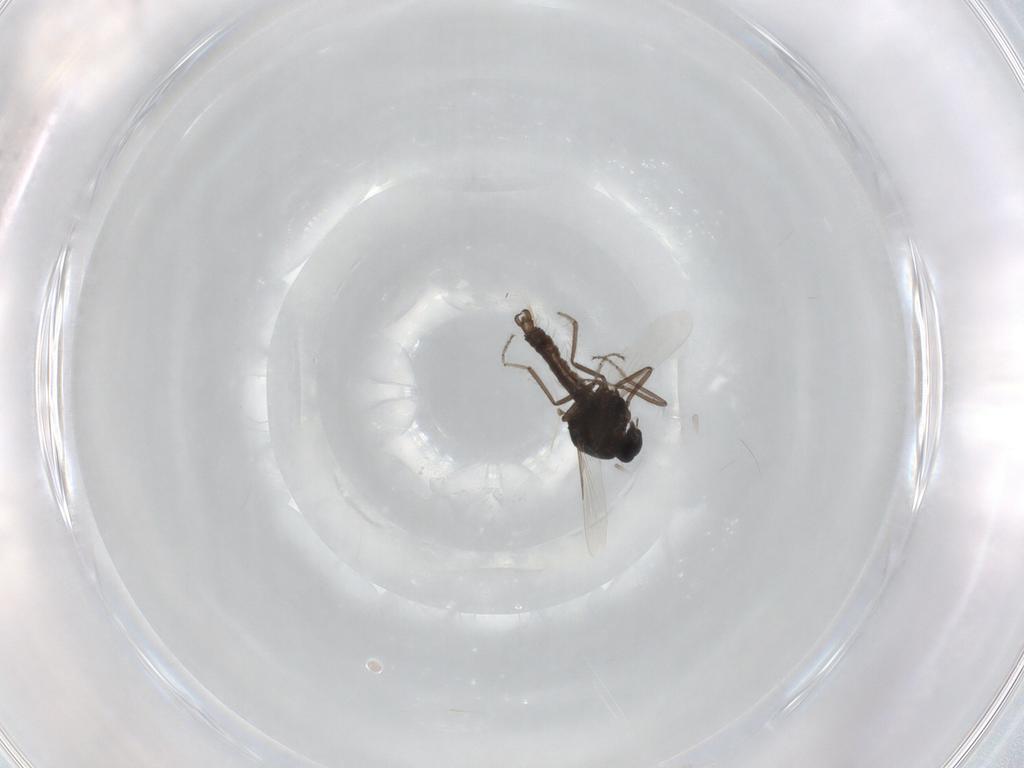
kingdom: Animalia
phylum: Arthropoda
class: Insecta
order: Diptera
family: Ceratopogonidae
